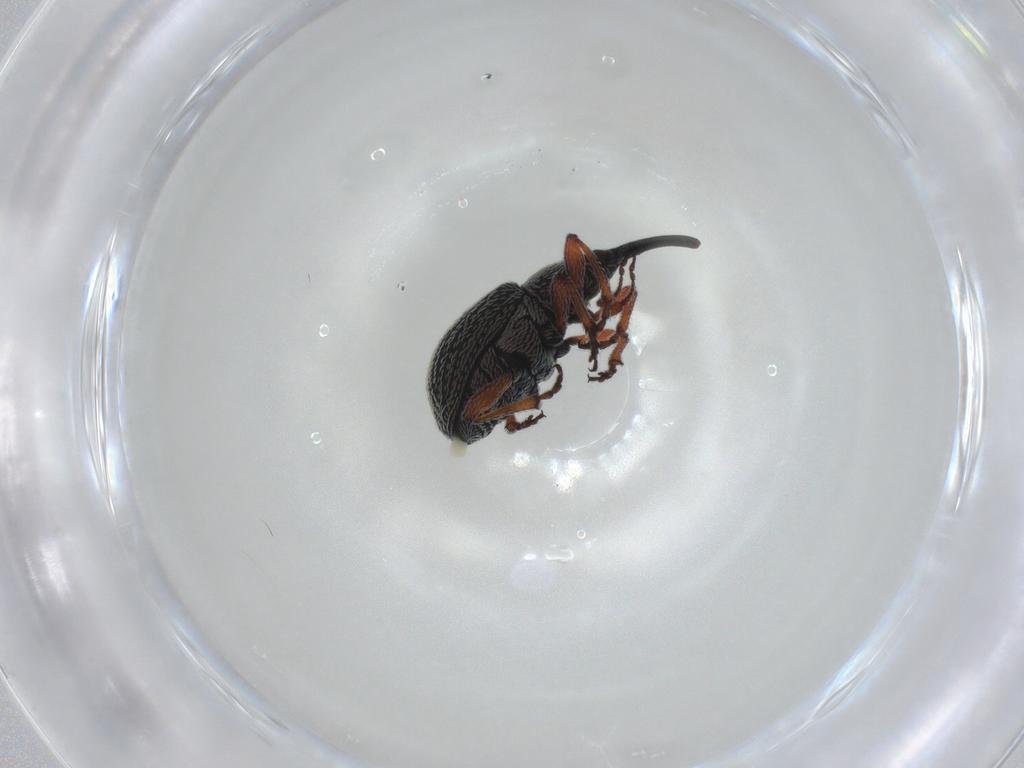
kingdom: Animalia
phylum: Arthropoda
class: Insecta
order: Coleoptera
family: Brentidae
